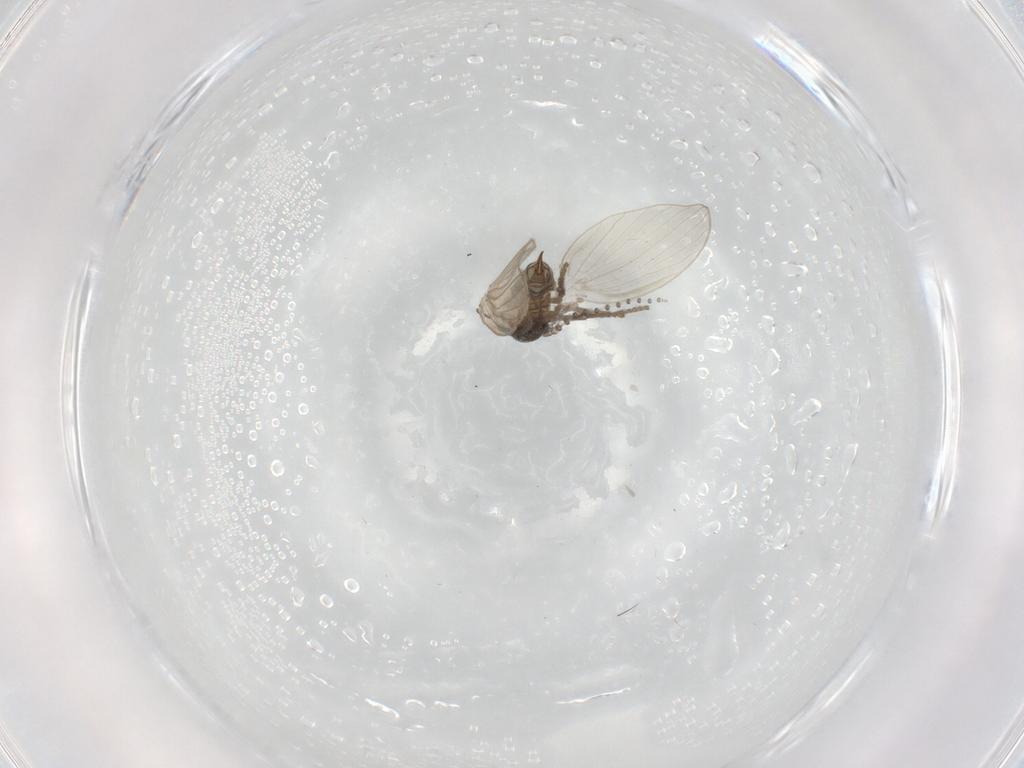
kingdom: Animalia
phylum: Arthropoda
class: Insecta
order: Diptera
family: Psychodidae
